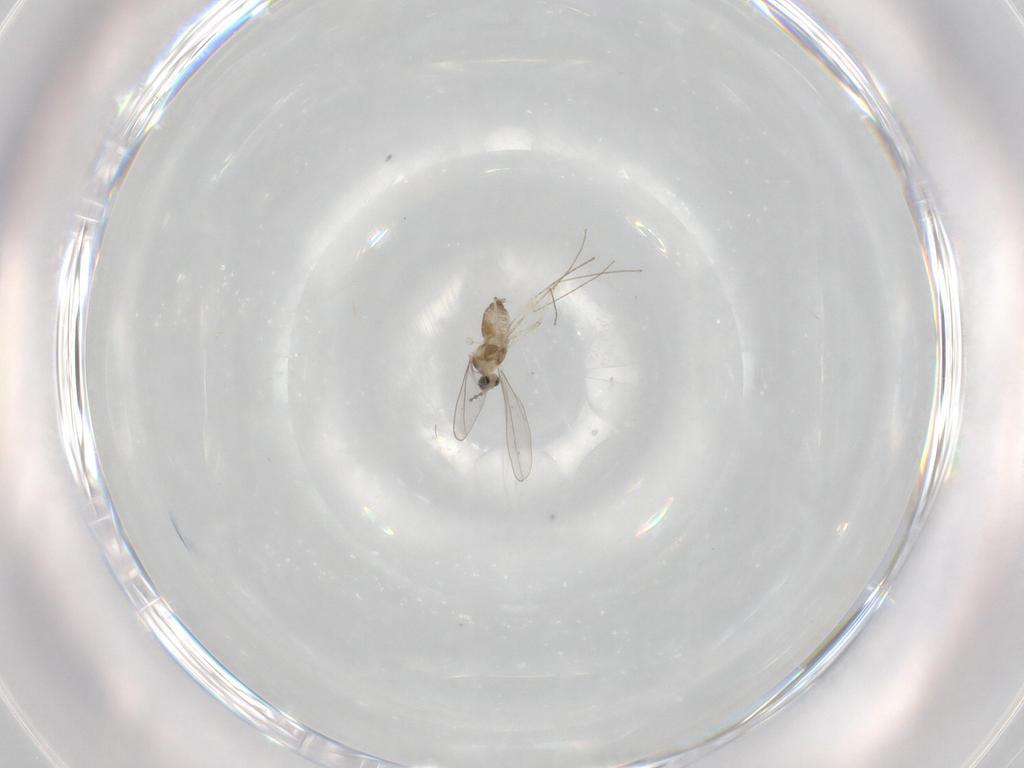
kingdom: Animalia
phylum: Arthropoda
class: Insecta
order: Diptera
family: Cecidomyiidae
